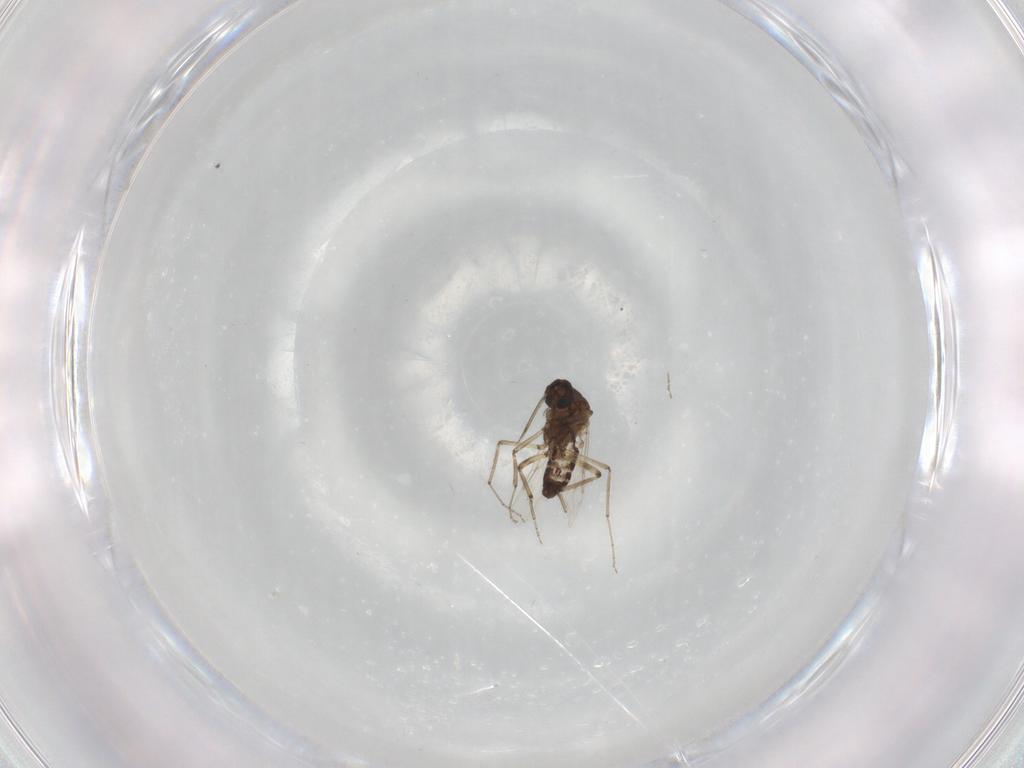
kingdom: Animalia
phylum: Arthropoda
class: Insecta
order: Diptera
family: Ceratopogonidae
